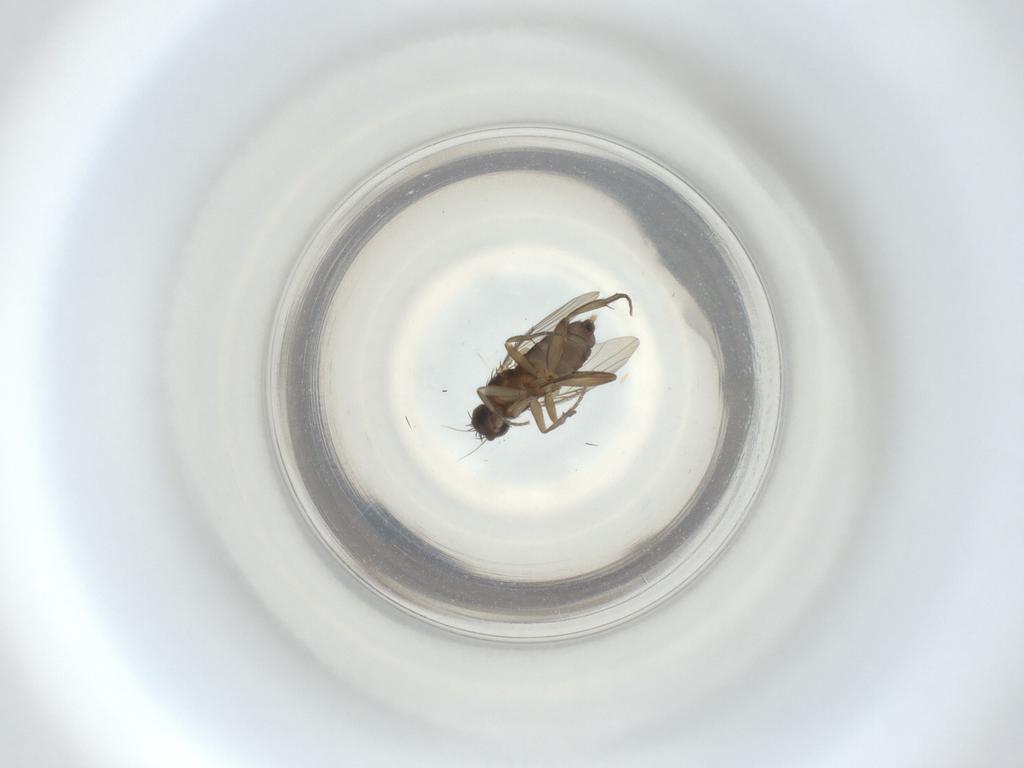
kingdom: Animalia
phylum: Arthropoda
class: Insecta
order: Diptera
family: Phoridae
